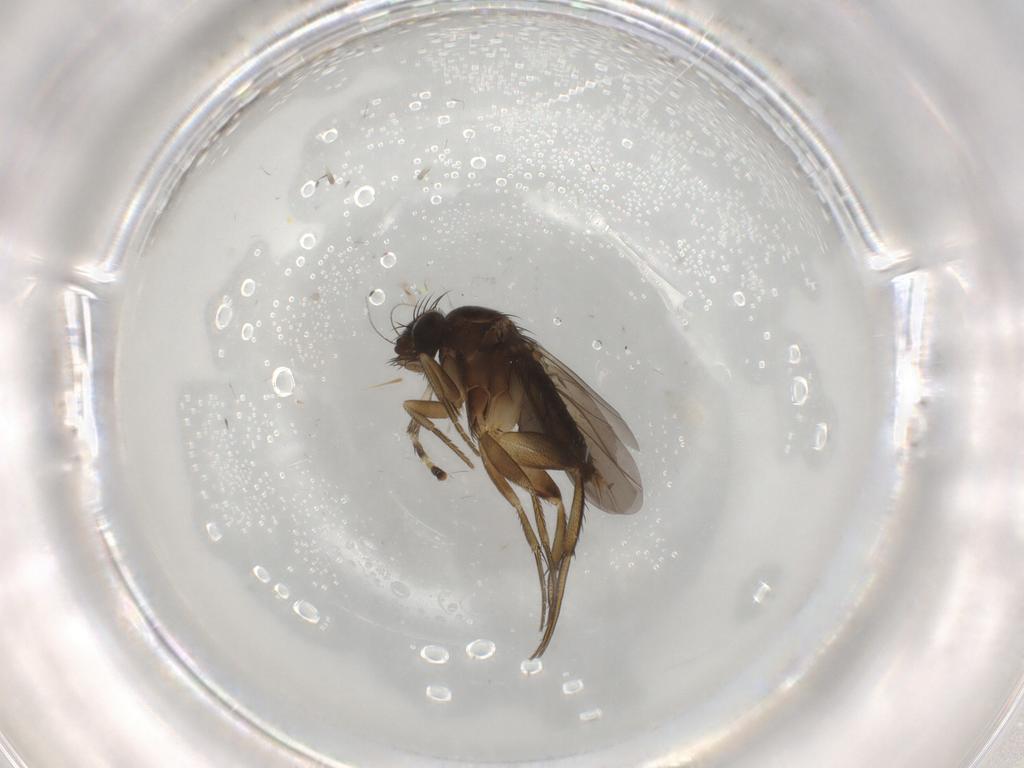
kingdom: Animalia
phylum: Arthropoda
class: Insecta
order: Diptera
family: Phoridae
